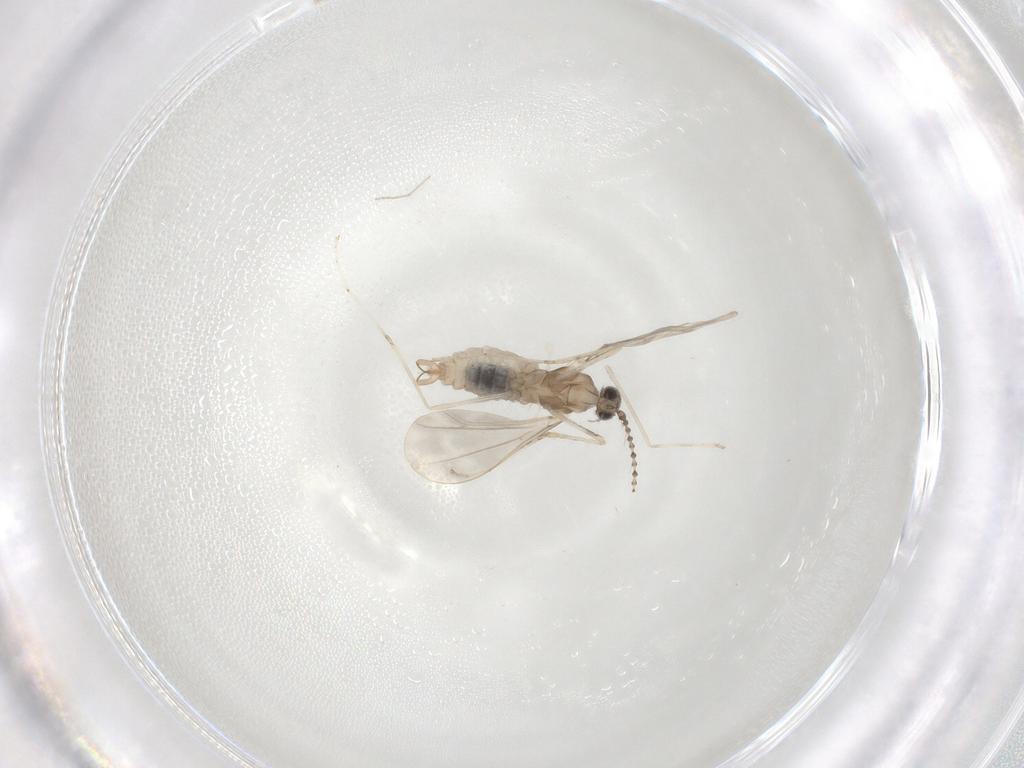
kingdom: Animalia
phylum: Arthropoda
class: Insecta
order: Diptera
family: Cecidomyiidae
